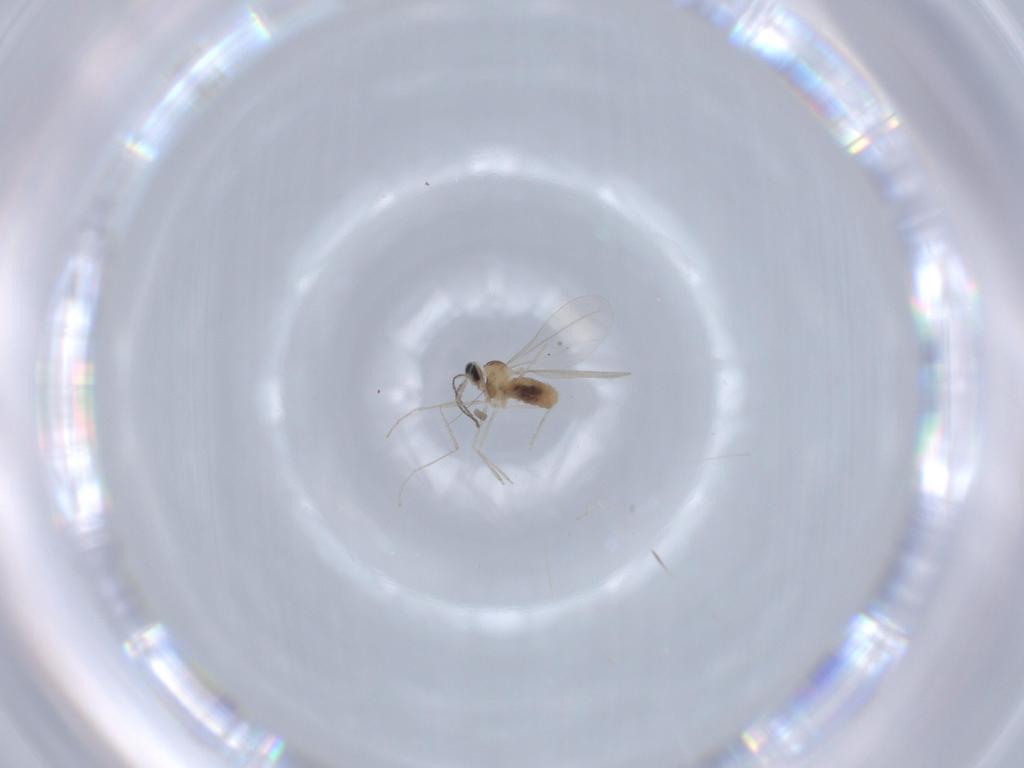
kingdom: Animalia
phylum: Arthropoda
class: Insecta
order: Diptera
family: Cecidomyiidae
